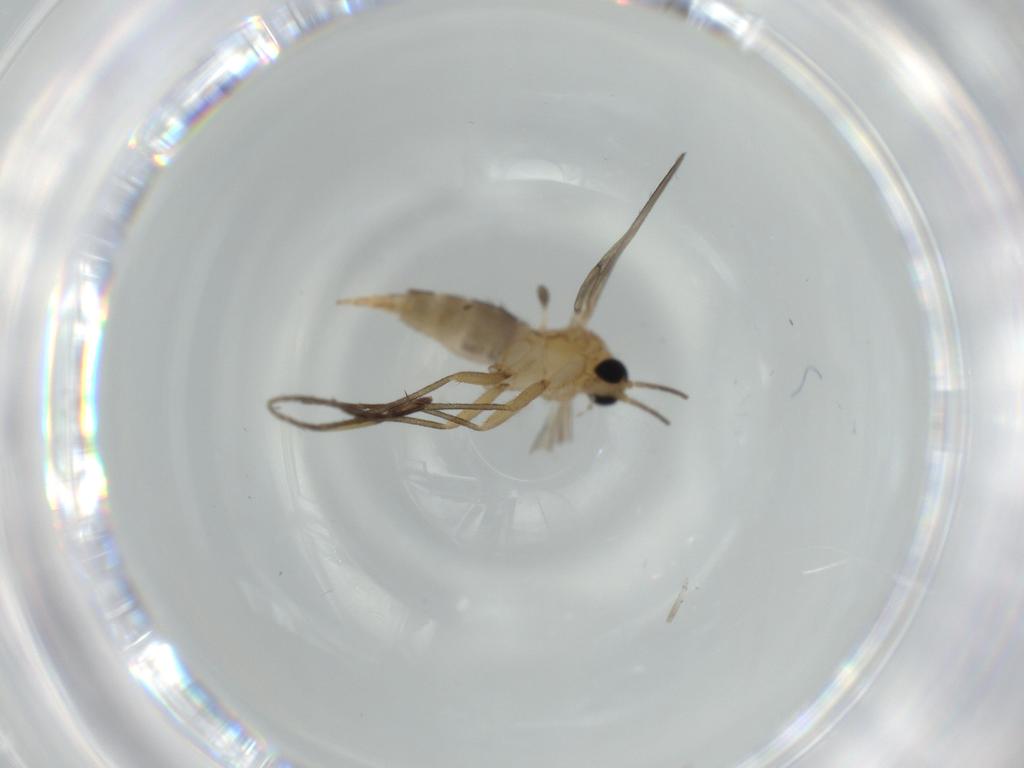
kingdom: Animalia
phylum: Arthropoda
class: Insecta
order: Diptera
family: Sciaridae
